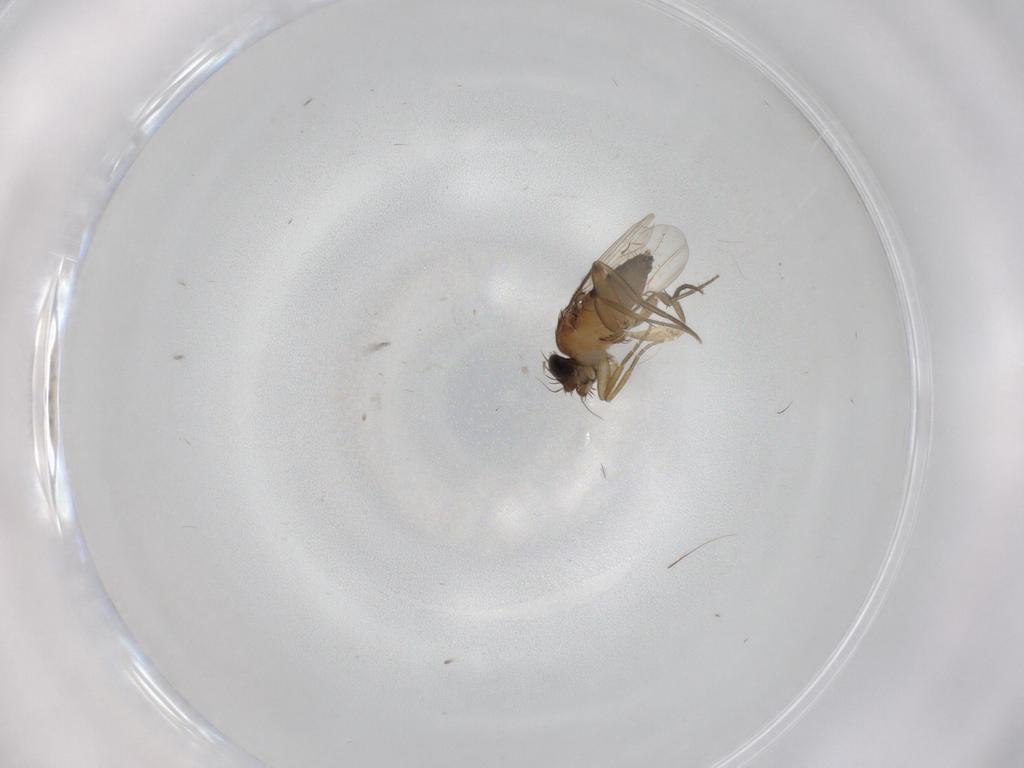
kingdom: Animalia
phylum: Arthropoda
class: Insecta
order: Diptera
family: Phoridae
